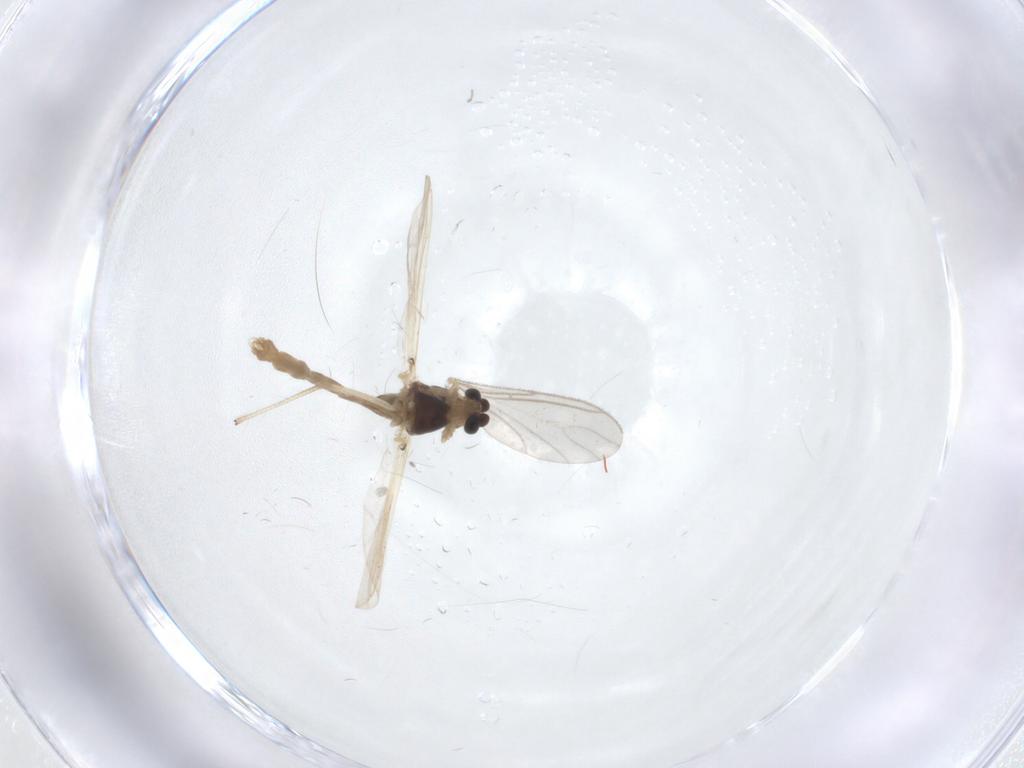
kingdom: Animalia
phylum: Arthropoda
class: Insecta
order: Diptera
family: Chironomidae
